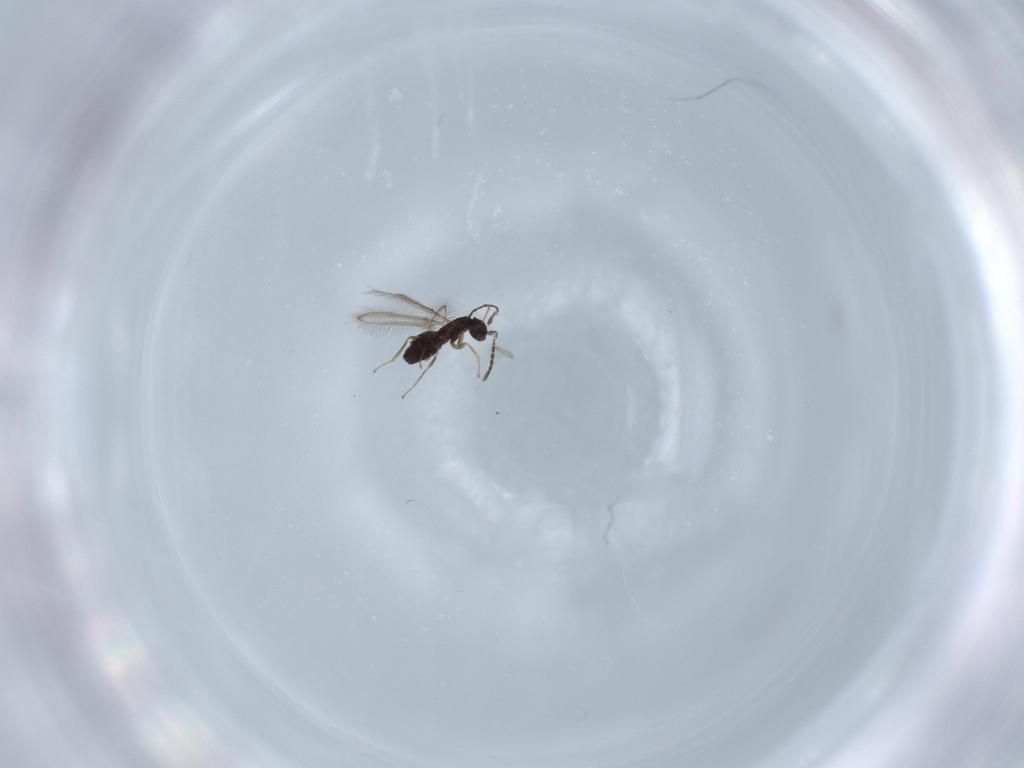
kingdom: Animalia
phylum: Arthropoda
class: Insecta
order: Hymenoptera
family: Mymaridae
